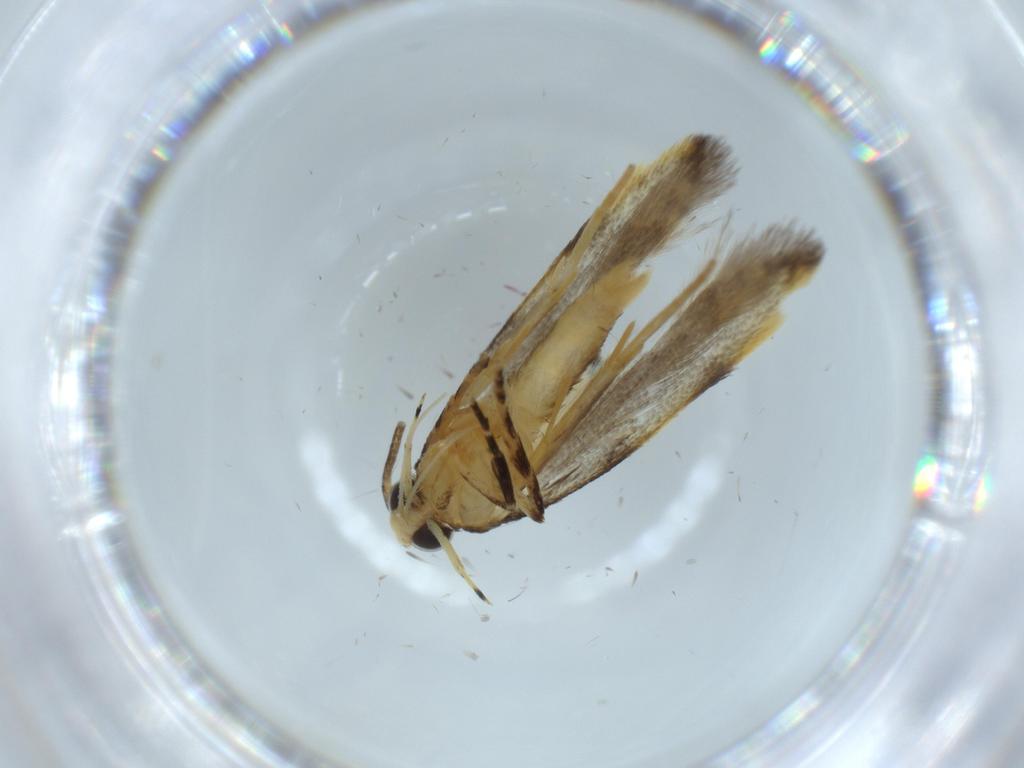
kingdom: Animalia
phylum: Arthropoda
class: Insecta
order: Lepidoptera
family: Autostichidae
